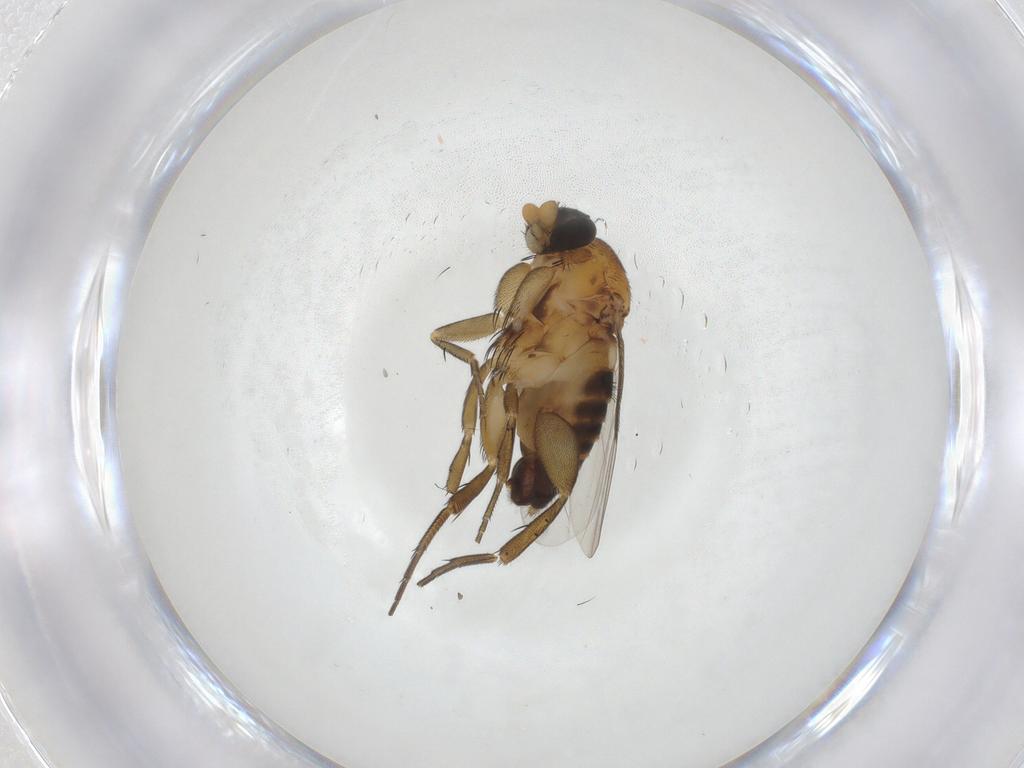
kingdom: Animalia
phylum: Arthropoda
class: Insecta
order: Diptera
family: Phoridae
